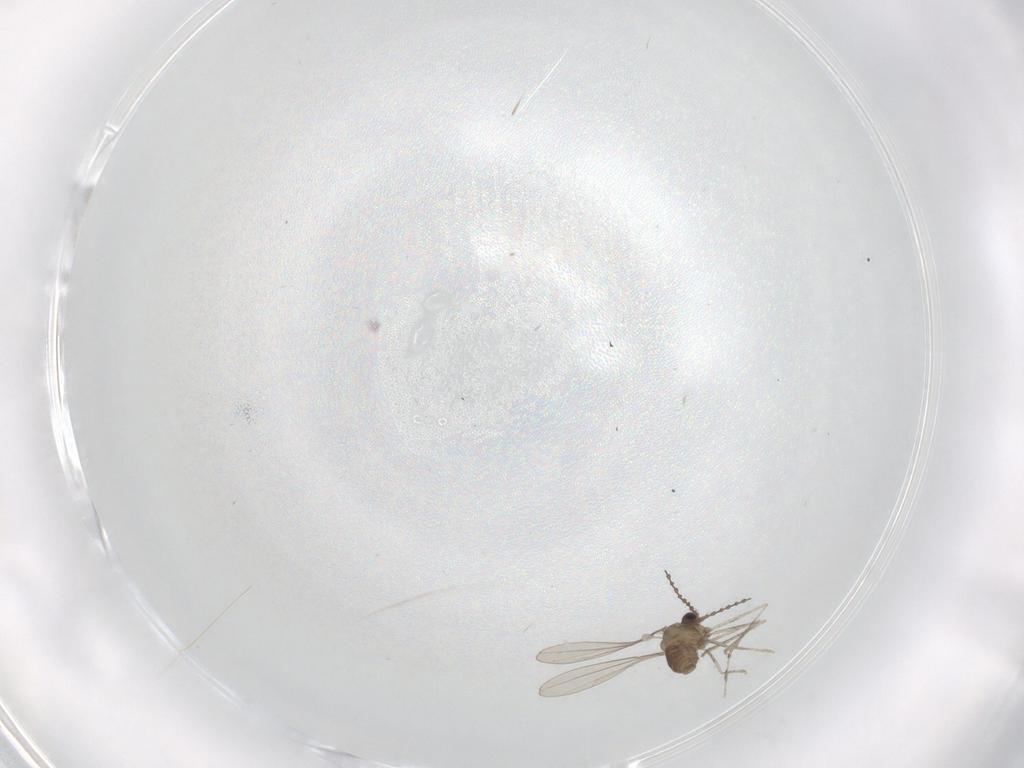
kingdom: Animalia
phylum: Arthropoda
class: Insecta
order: Diptera
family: Cecidomyiidae
